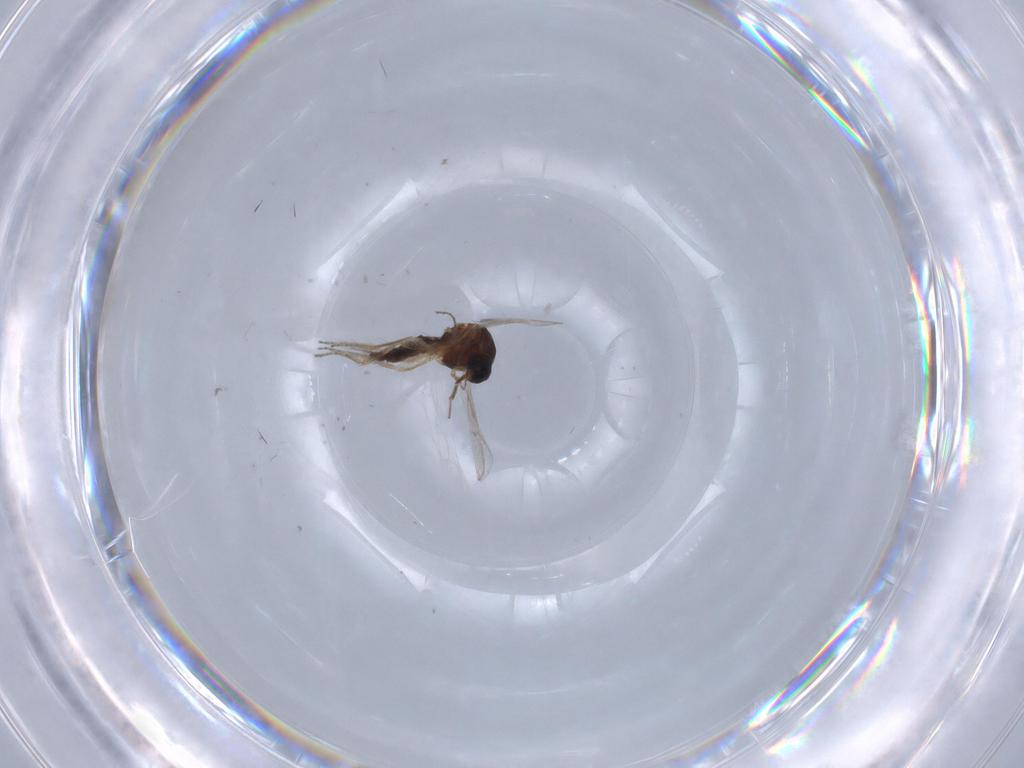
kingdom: Animalia
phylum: Arthropoda
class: Insecta
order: Diptera
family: Ceratopogonidae
